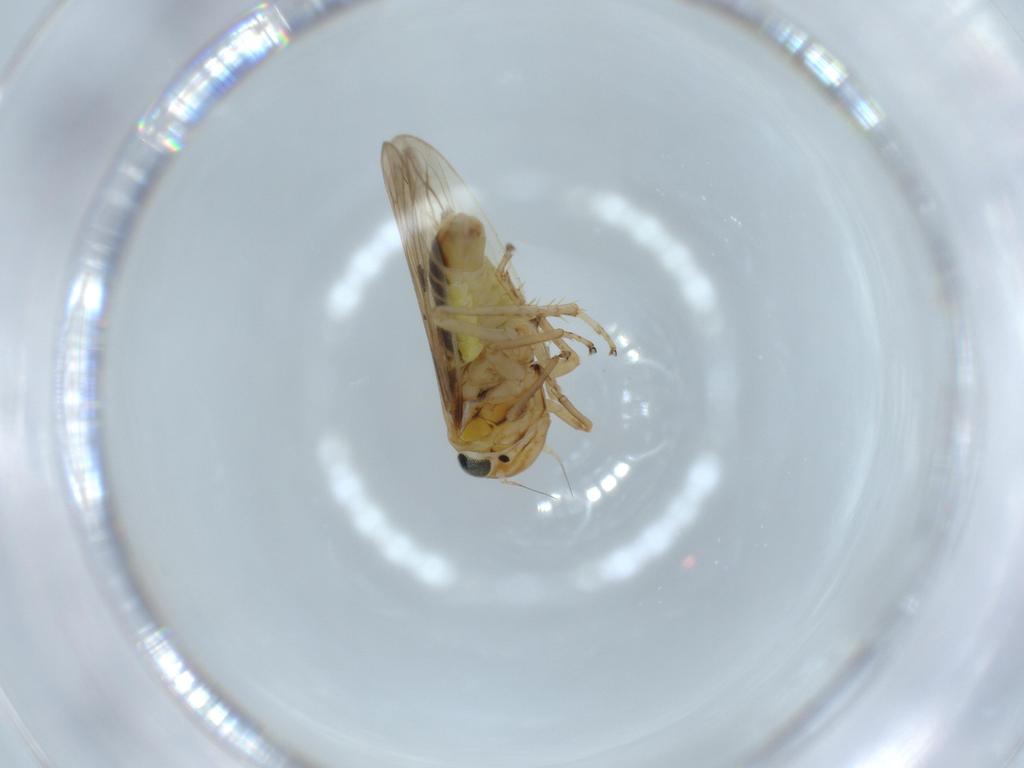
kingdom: Animalia
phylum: Arthropoda
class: Insecta
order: Hemiptera
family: Cicadellidae
